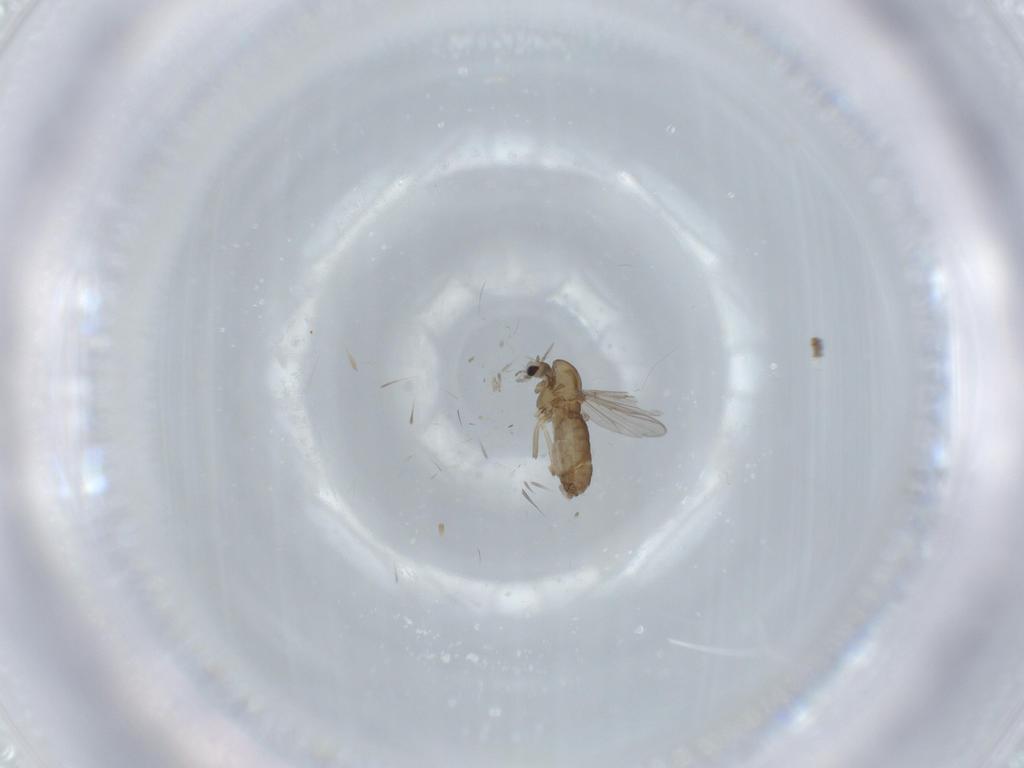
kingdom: Animalia
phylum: Arthropoda
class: Insecta
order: Diptera
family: Chironomidae
